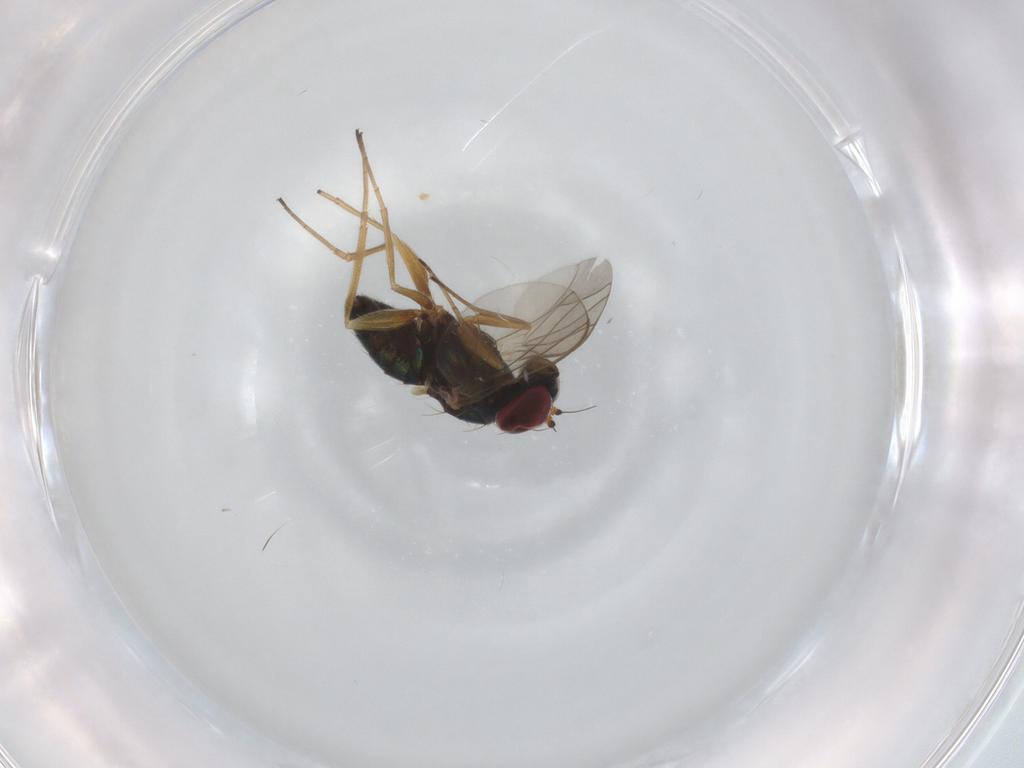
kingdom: Animalia
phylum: Arthropoda
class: Insecta
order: Diptera
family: Dolichopodidae
